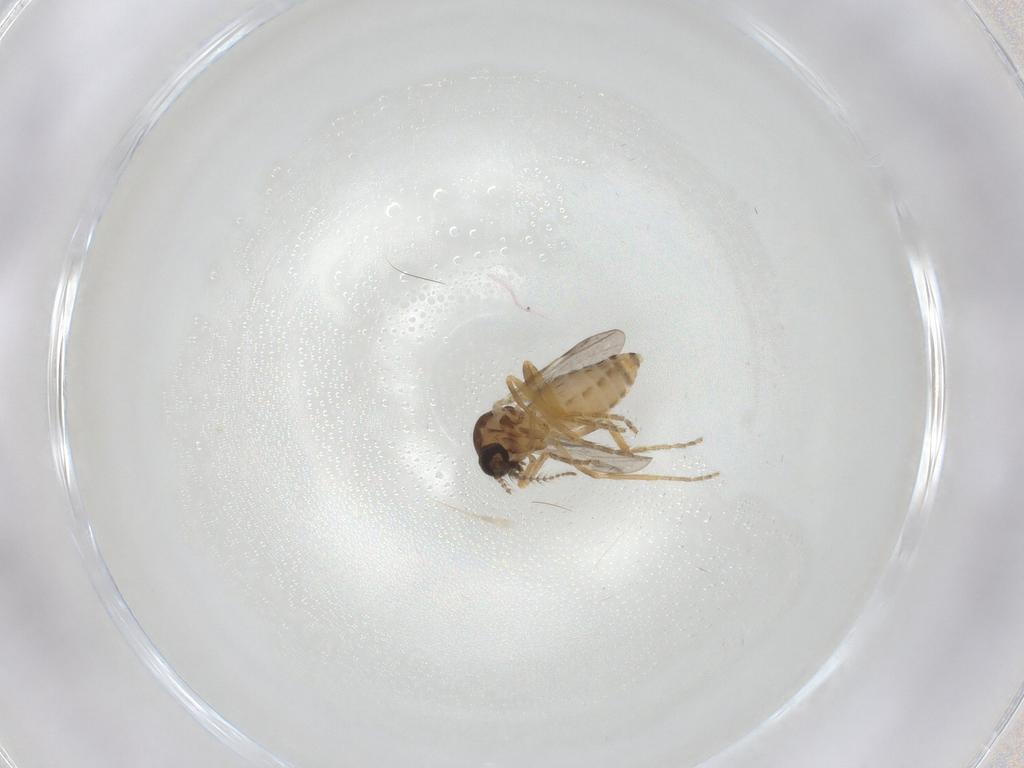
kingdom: Animalia
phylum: Arthropoda
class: Insecta
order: Diptera
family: Ceratopogonidae
